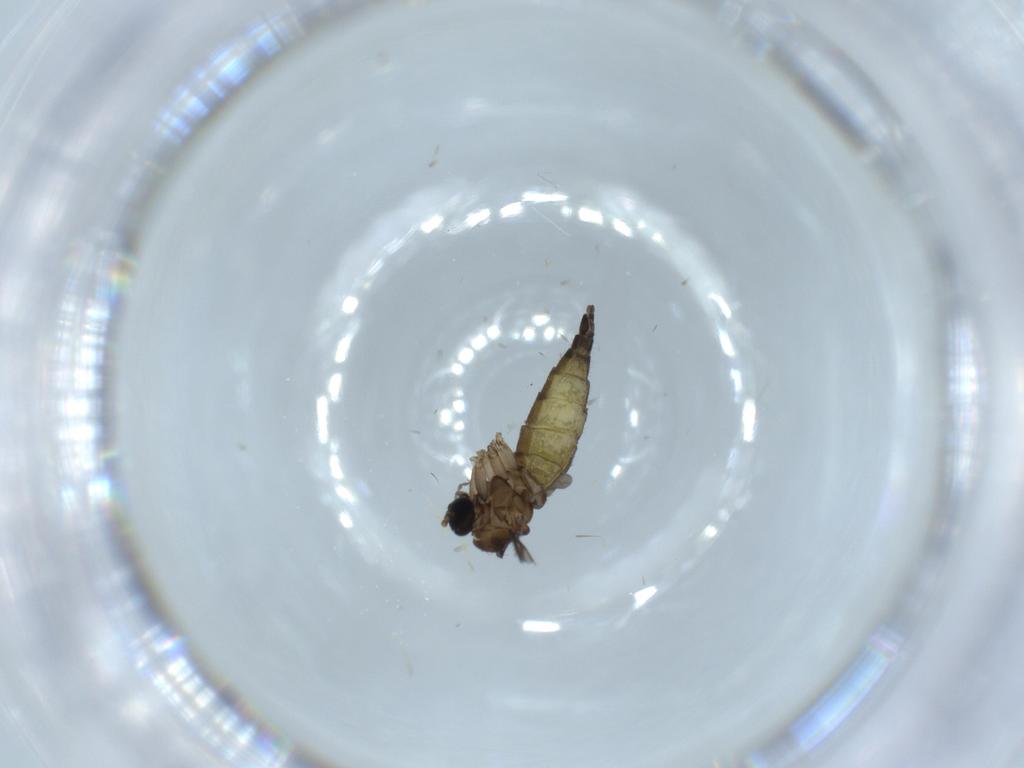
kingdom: Animalia
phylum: Arthropoda
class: Insecta
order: Diptera
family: Sciaridae
